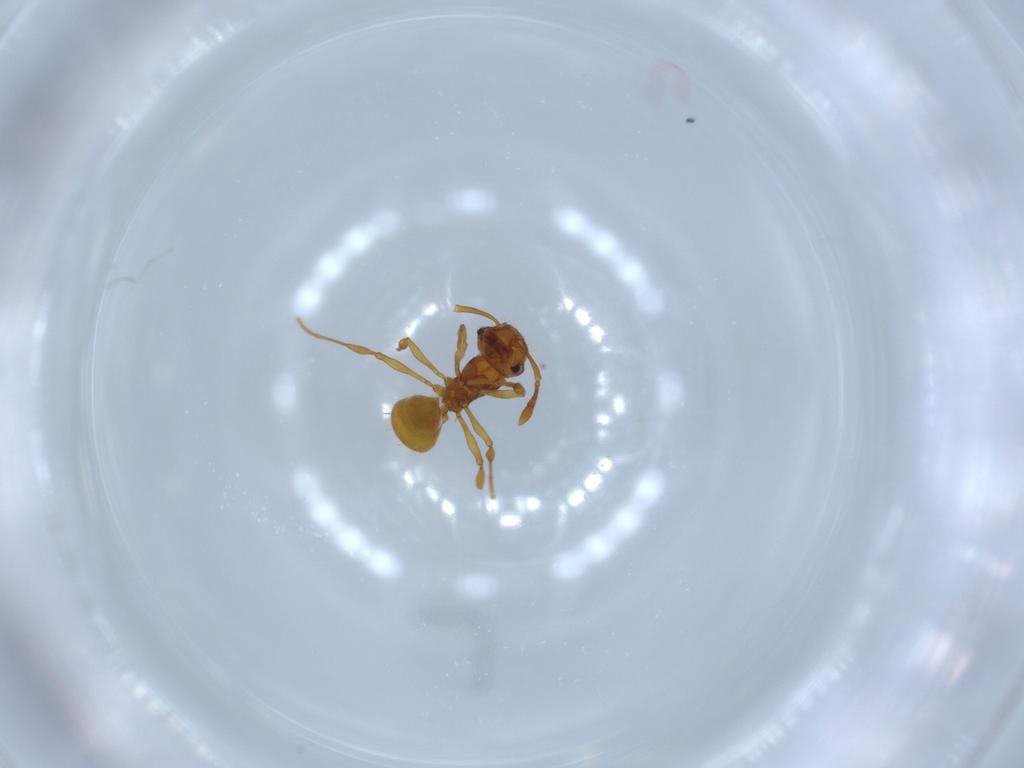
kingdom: Animalia
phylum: Arthropoda
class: Insecta
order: Hymenoptera
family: Formicidae
